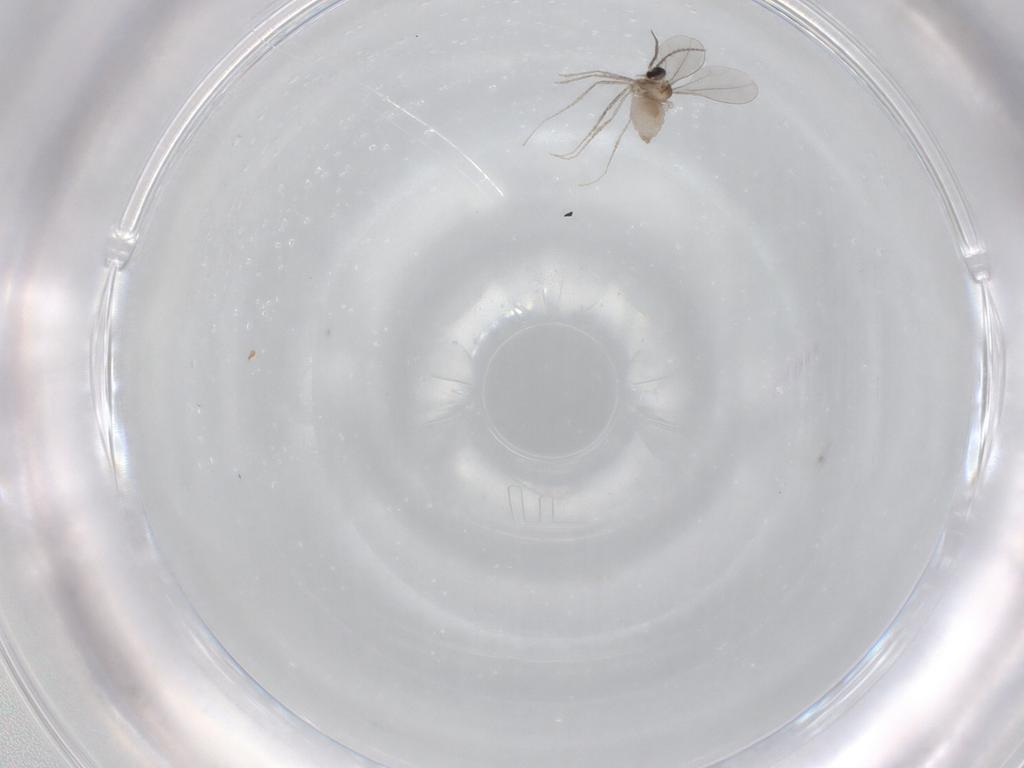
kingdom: Animalia
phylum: Arthropoda
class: Insecta
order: Diptera
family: Cecidomyiidae
